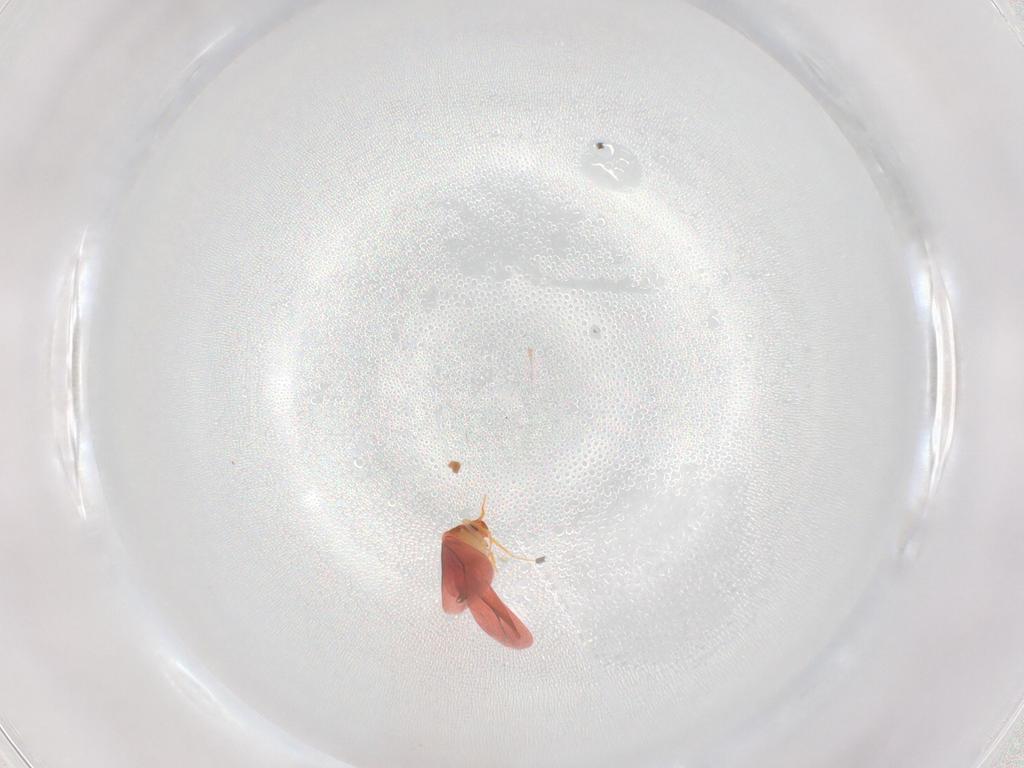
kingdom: Animalia
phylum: Arthropoda
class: Insecta
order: Hemiptera
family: Aleyrodidae
